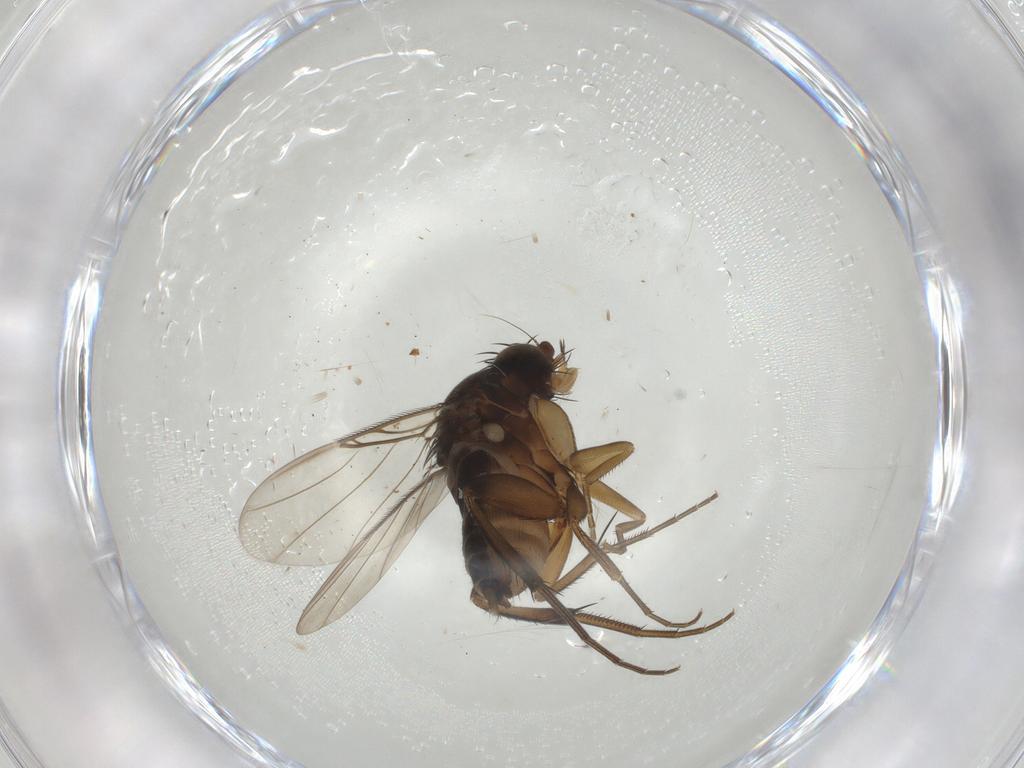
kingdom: Animalia
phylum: Arthropoda
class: Insecta
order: Diptera
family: Phoridae
